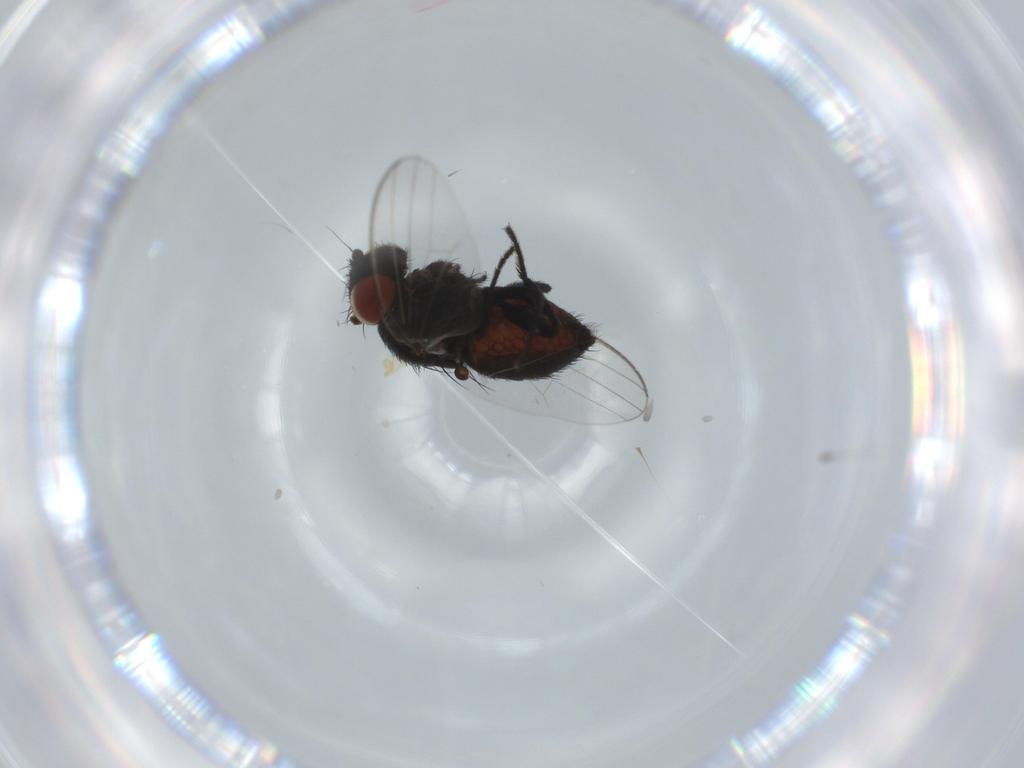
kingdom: Animalia
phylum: Arthropoda
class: Insecta
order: Diptera
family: Milichiidae
